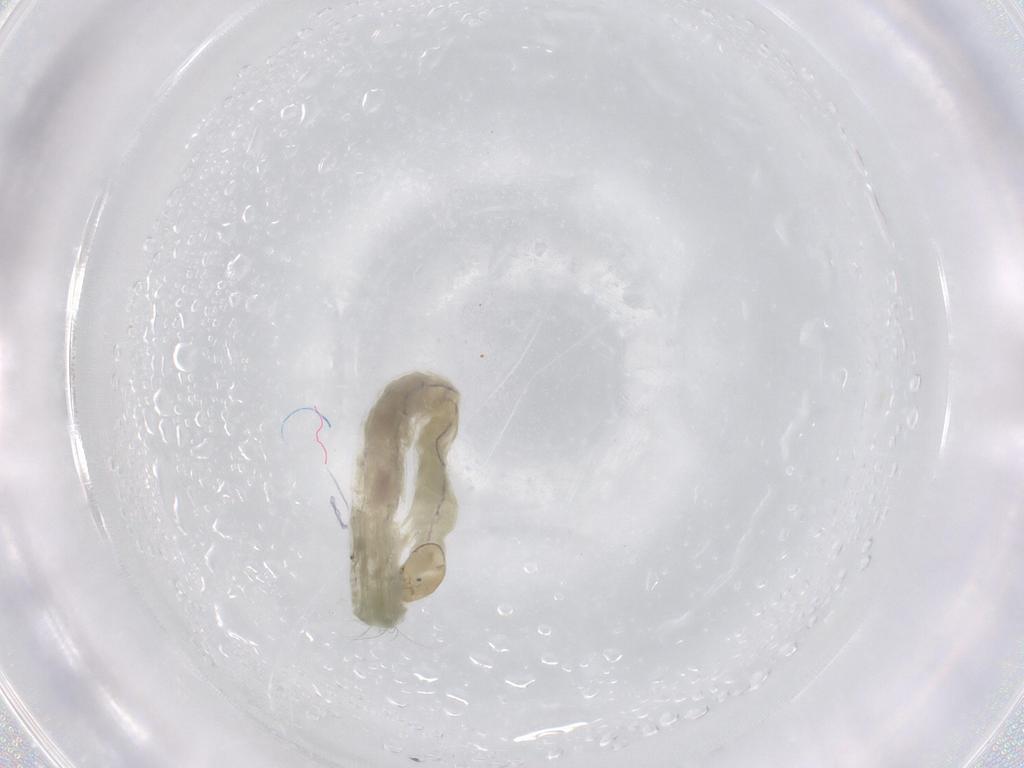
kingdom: Animalia
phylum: Arthropoda
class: Insecta
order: Diptera
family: Chironomidae
